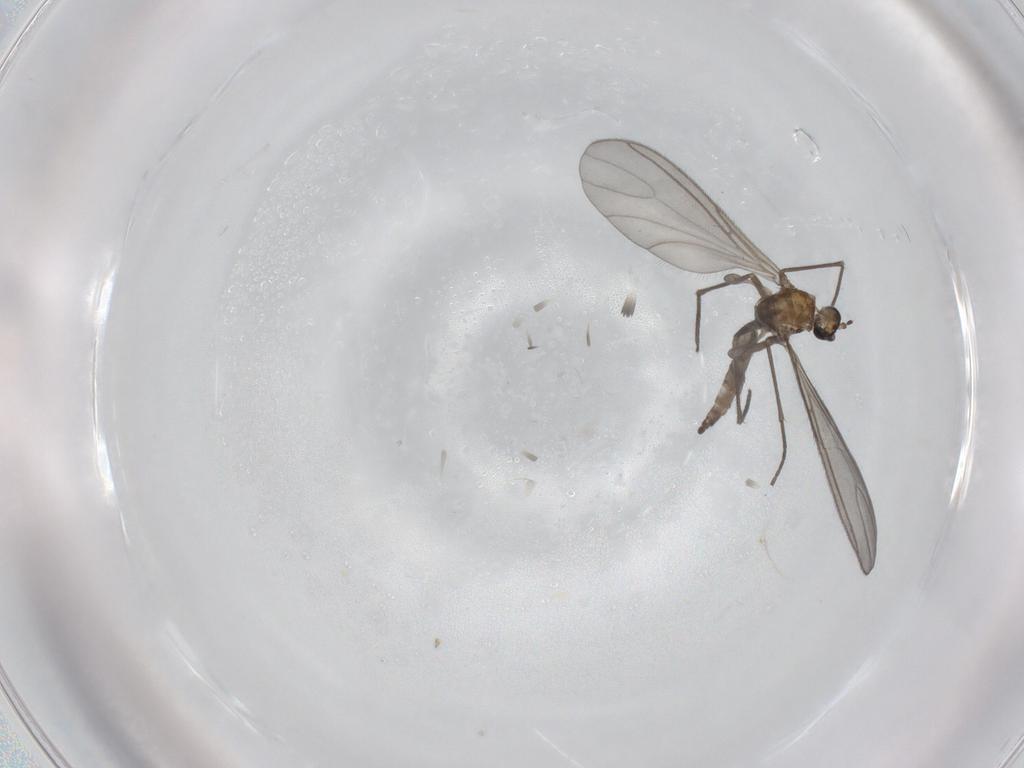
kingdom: Animalia
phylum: Arthropoda
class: Insecta
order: Diptera
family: Sciaridae
